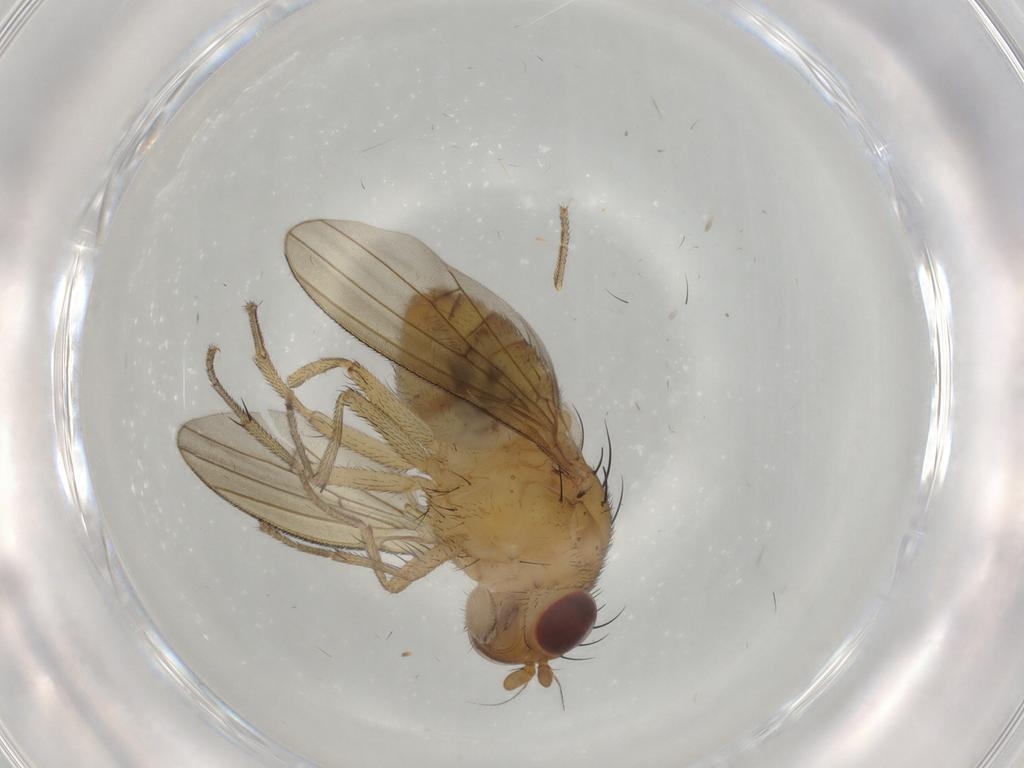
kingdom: Animalia
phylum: Arthropoda
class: Insecta
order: Diptera
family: Lauxaniidae
